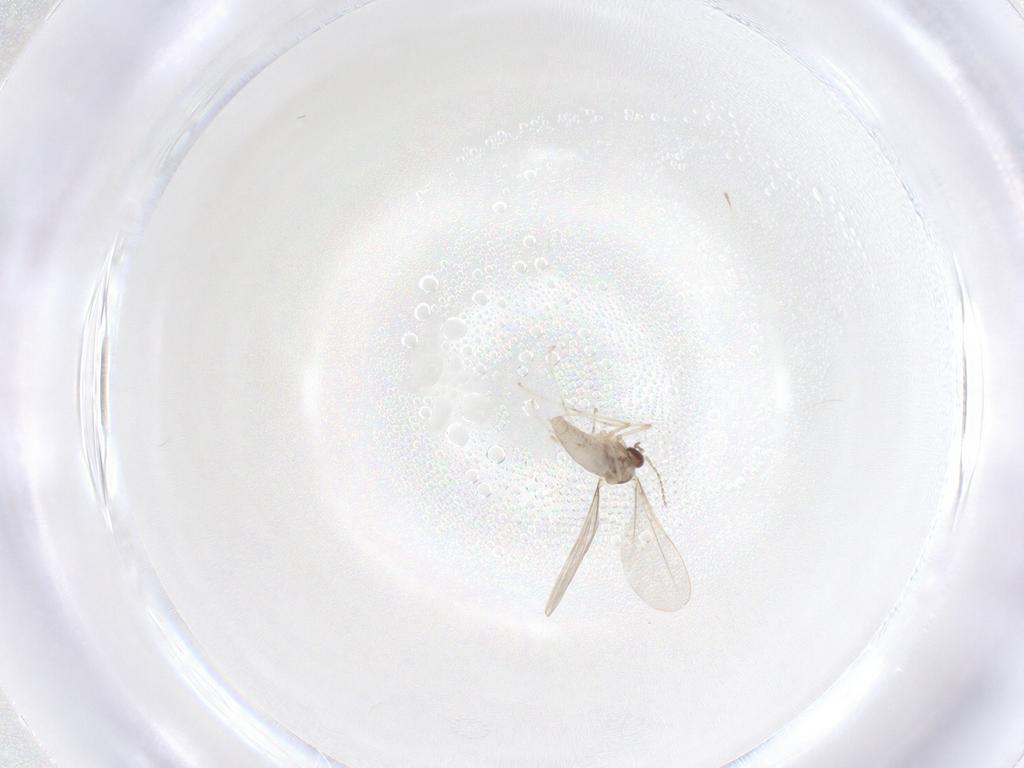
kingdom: Animalia
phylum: Arthropoda
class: Insecta
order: Diptera
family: Cecidomyiidae
